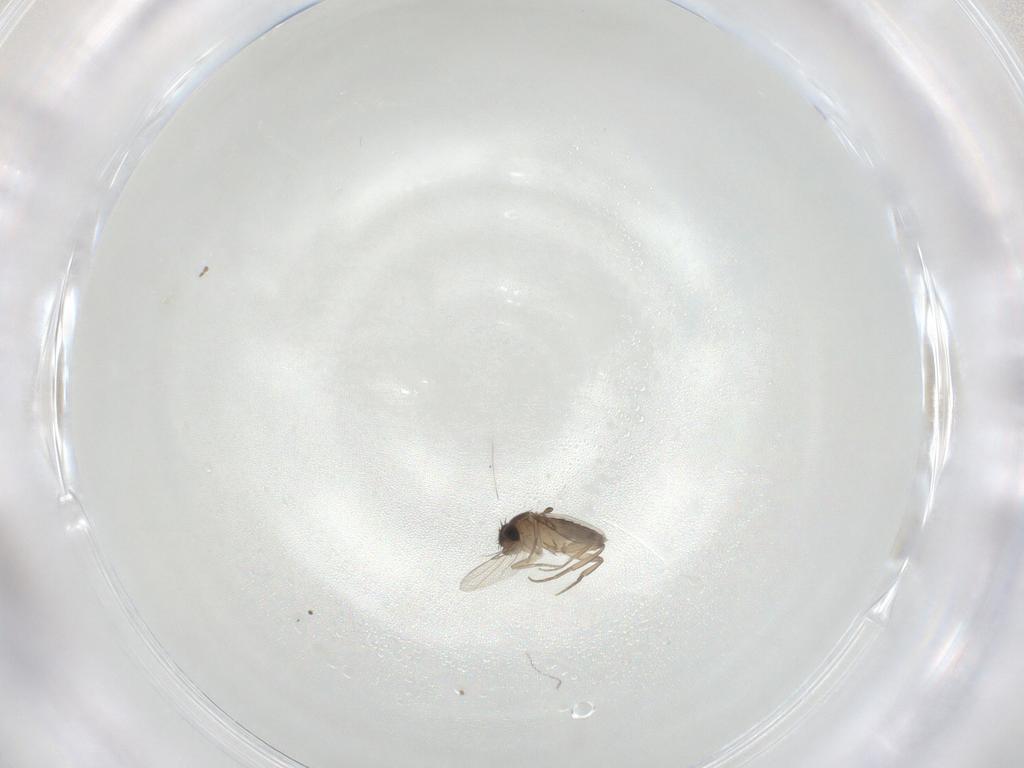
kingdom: Animalia
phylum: Arthropoda
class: Insecta
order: Diptera
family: Phoridae
